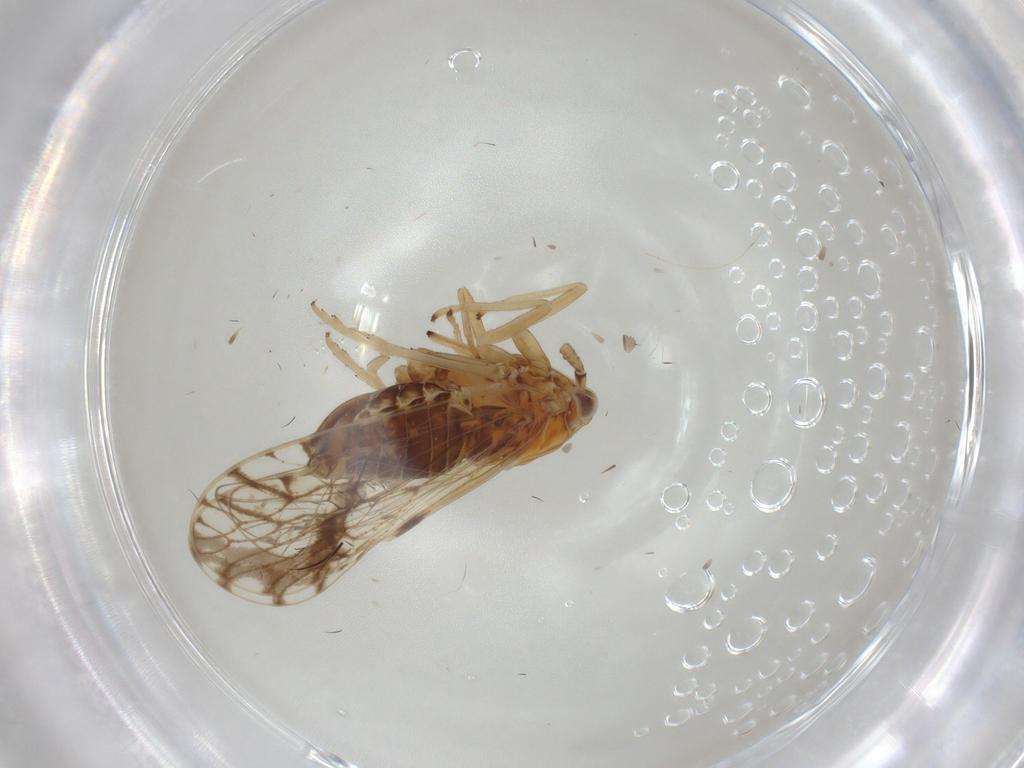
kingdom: Animalia
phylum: Arthropoda
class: Insecta
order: Hemiptera
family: Delphacidae
